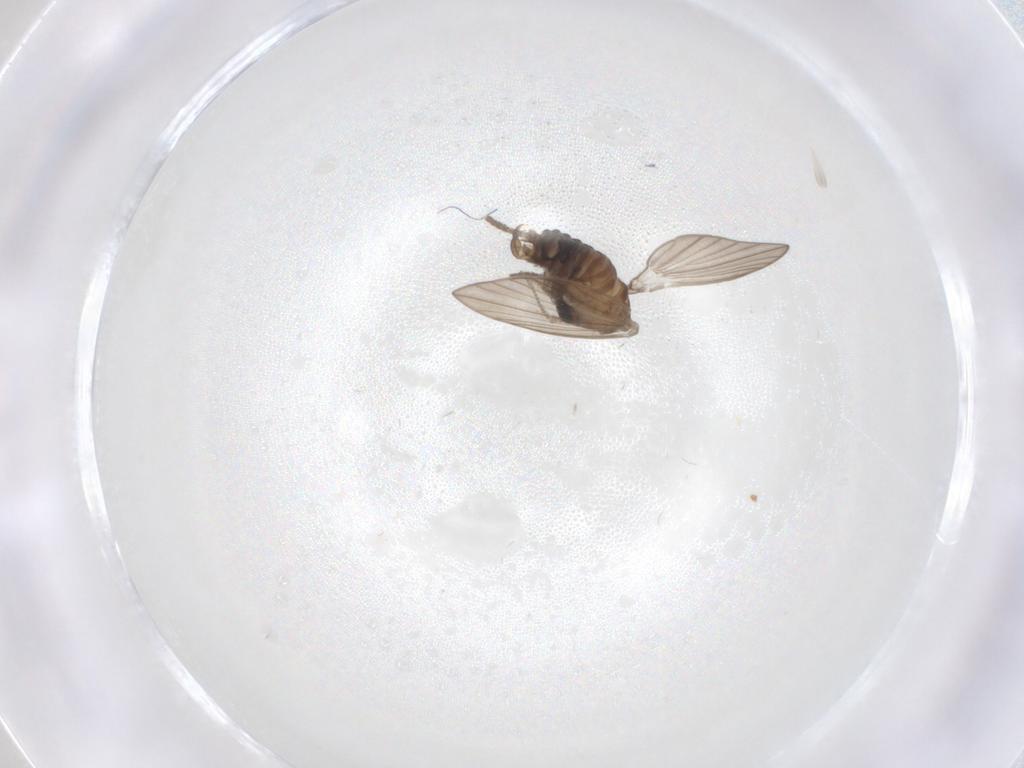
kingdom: Animalia
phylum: Arthropoda
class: Insecta
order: Diptera
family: Psychodidae
